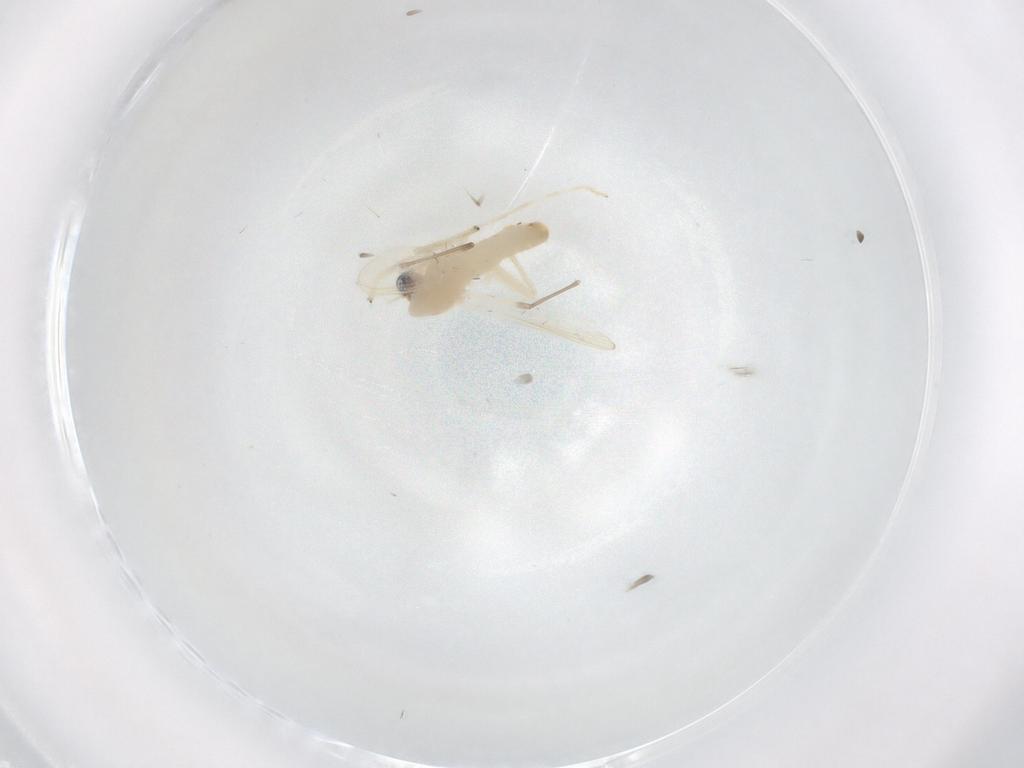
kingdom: Animalia
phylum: Arthropoda
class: Insecta
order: Diptera
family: Chironomidae
